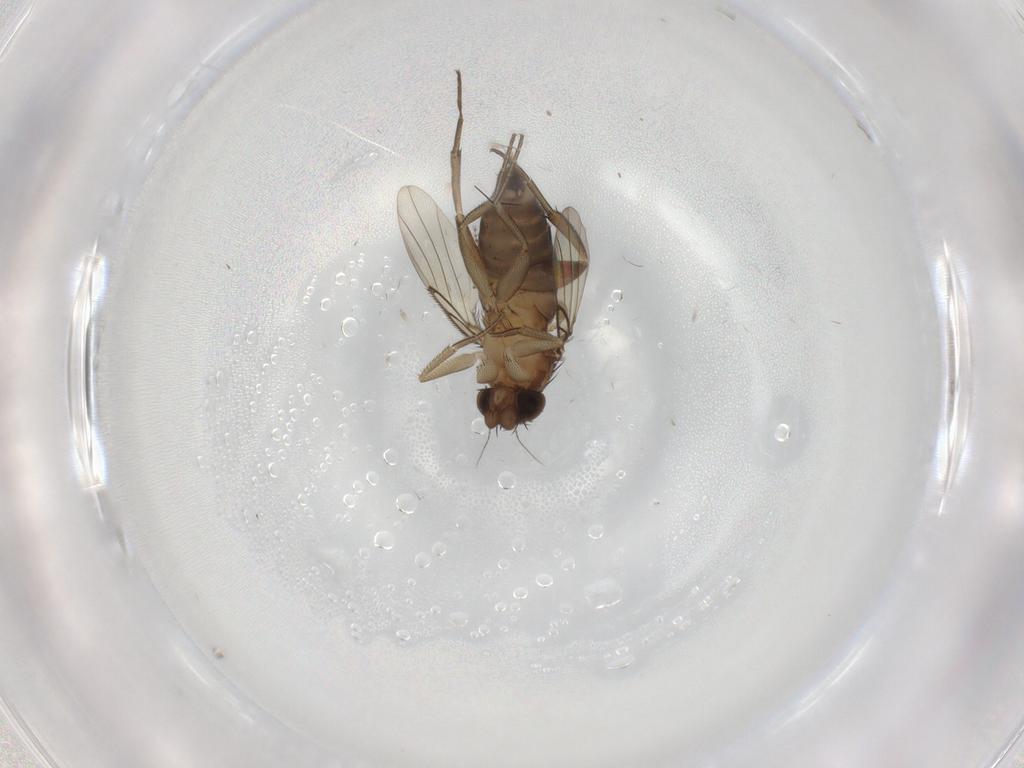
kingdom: Animalia
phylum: Arthropoda
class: Insecta
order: Diptera
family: Phoridae
